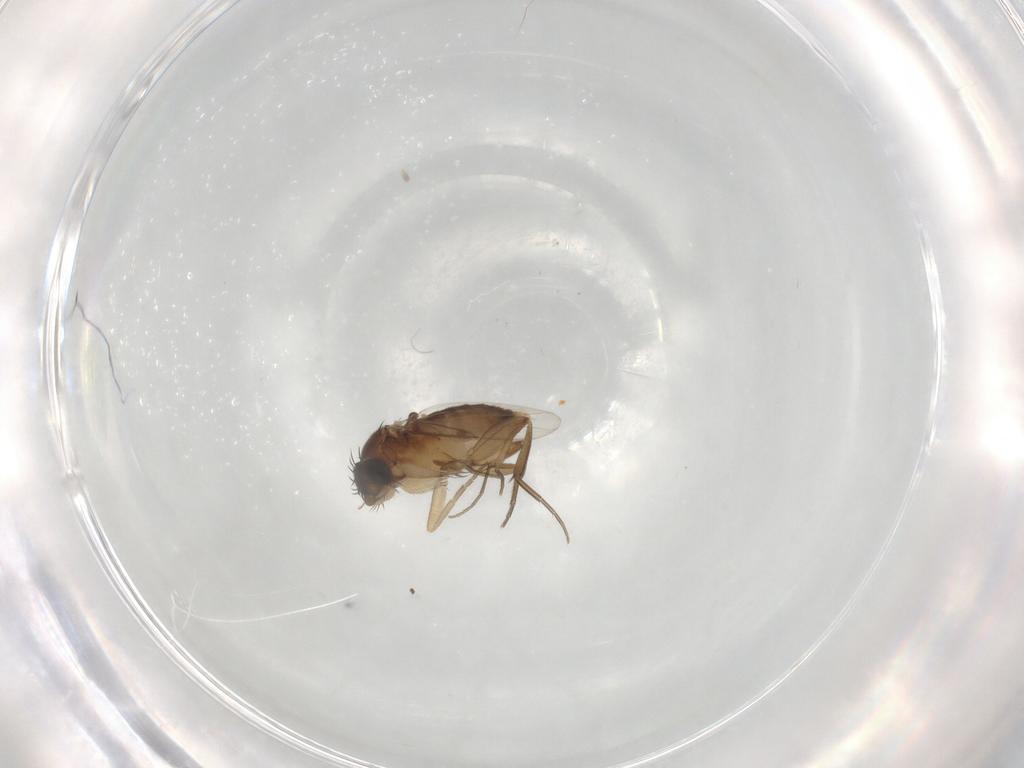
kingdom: Animalia
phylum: Arthropoda
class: Insecta
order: Diptera
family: Phoridae
